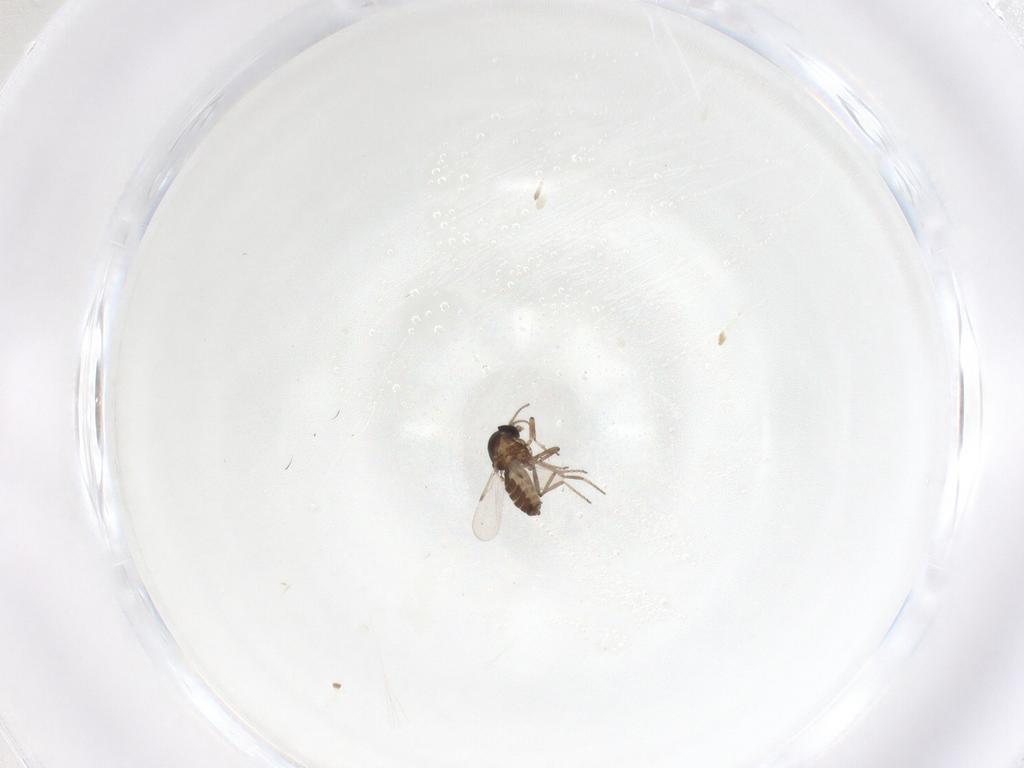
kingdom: Animalia
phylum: Arthropoda
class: Insecta
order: Diptera
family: Ceratopogonidae
